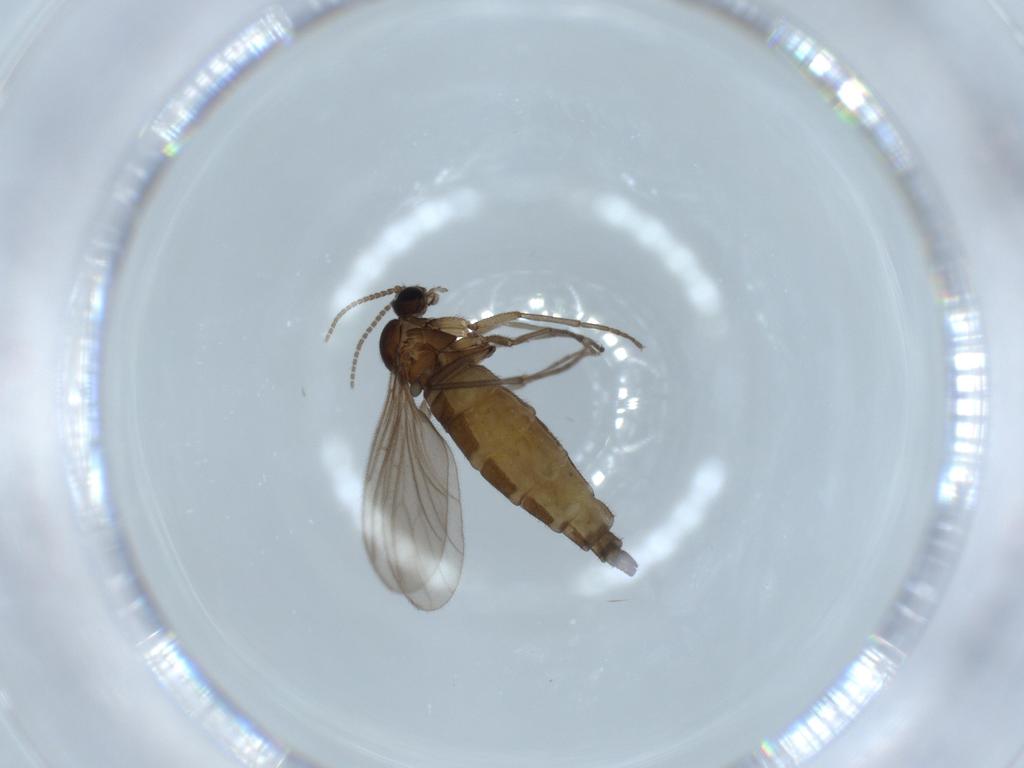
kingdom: Animalia
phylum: Arthropoda
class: Insecta
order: Diptera
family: Sciaridae
